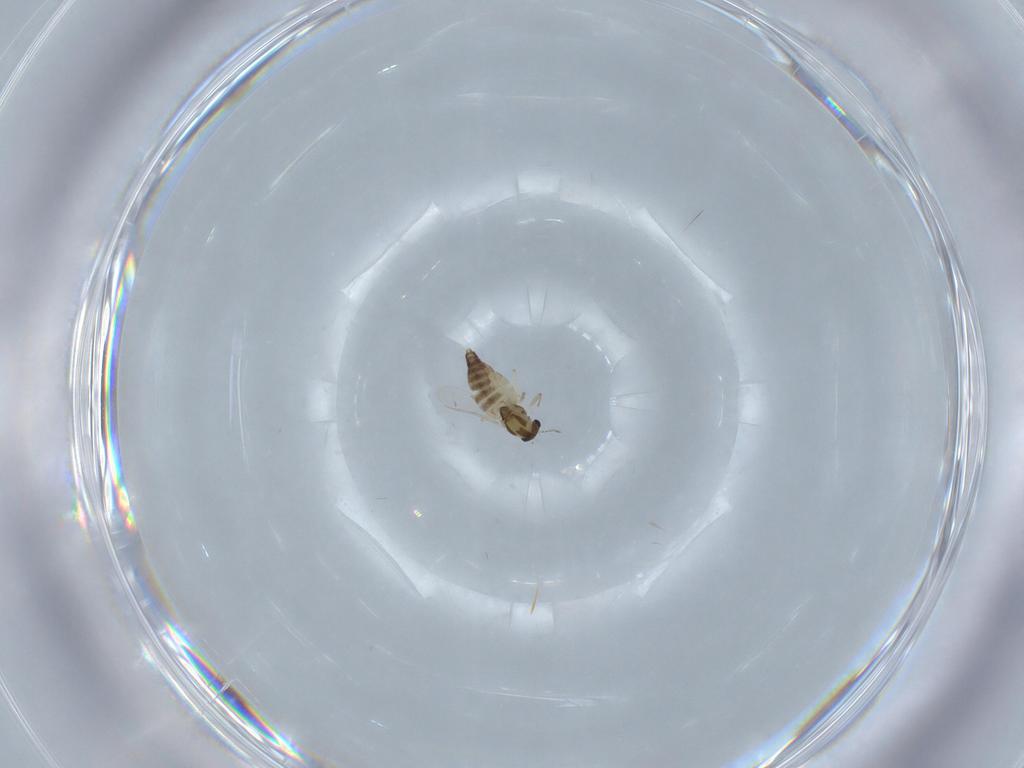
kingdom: Animalia
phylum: Arthropoda
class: Insecta
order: Diptera
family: Chironomidae
